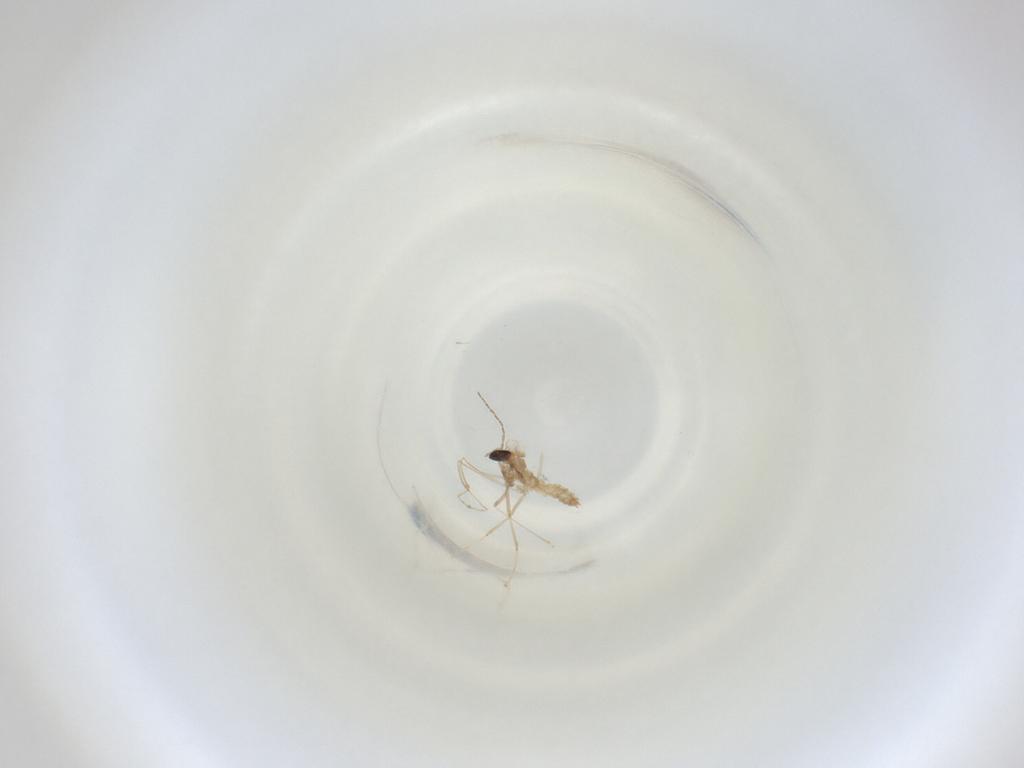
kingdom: Animalia
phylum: Arthropoda
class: Insecta
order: Diptera
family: Cecidomyiidae
